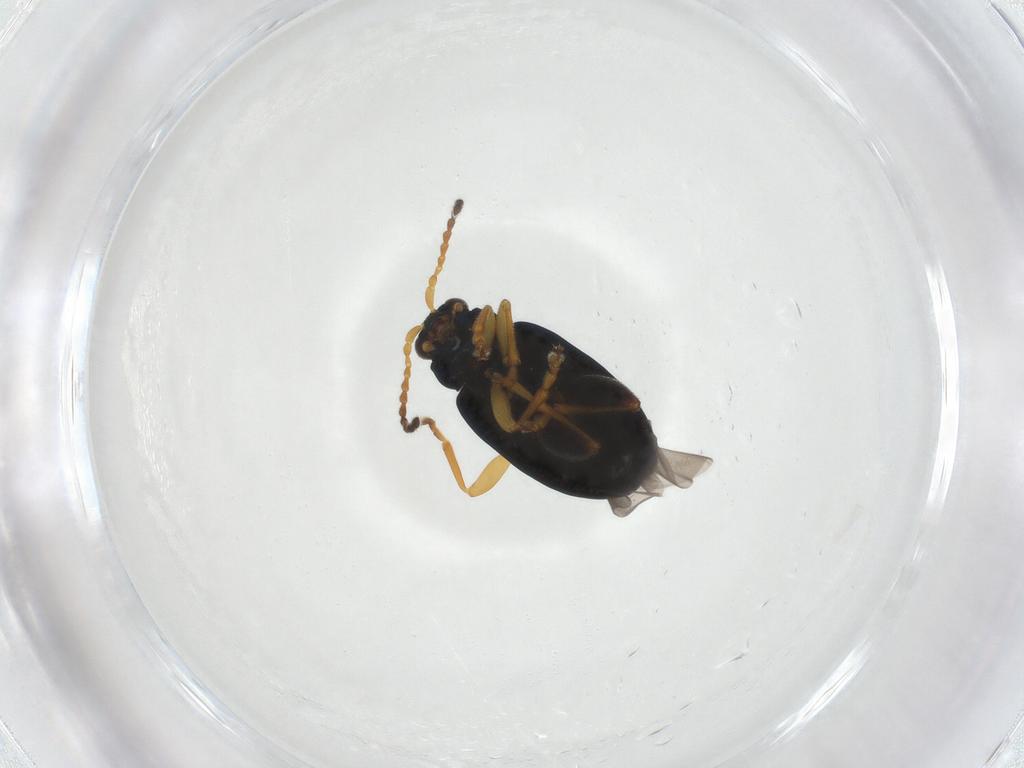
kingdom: Animalia
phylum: Arthropoda
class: Insecta
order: Coleoptera
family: Chrysomelidae
